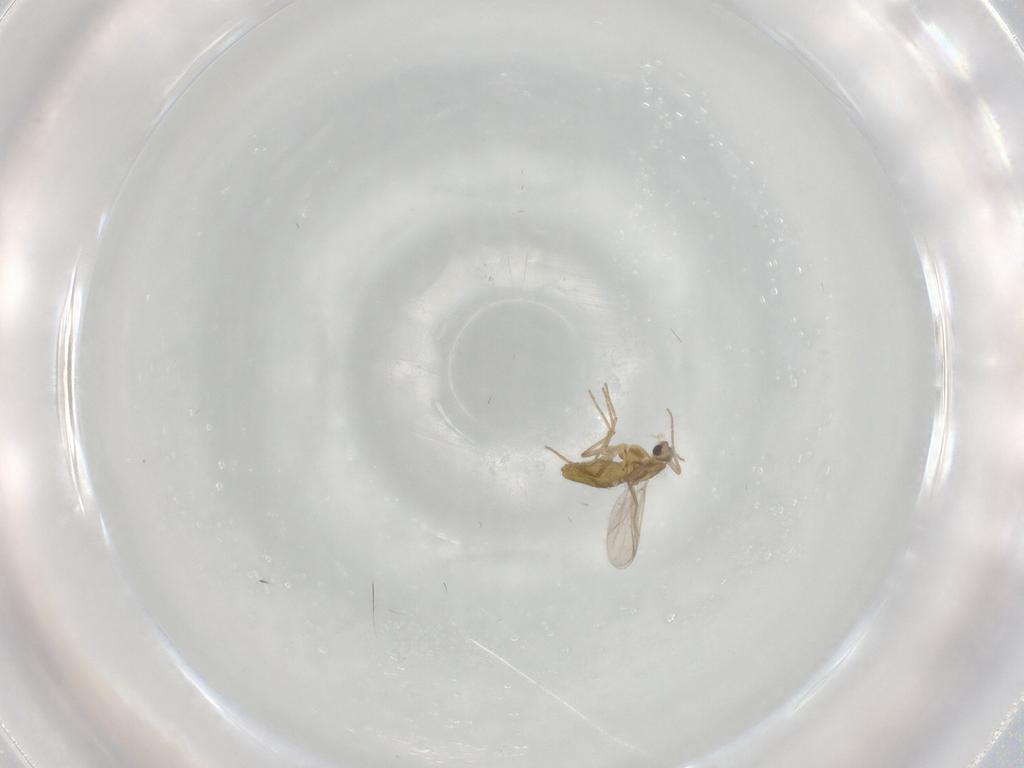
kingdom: Animalia
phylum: Arthropoda
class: Insecta
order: Diptera
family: Chironomidae
